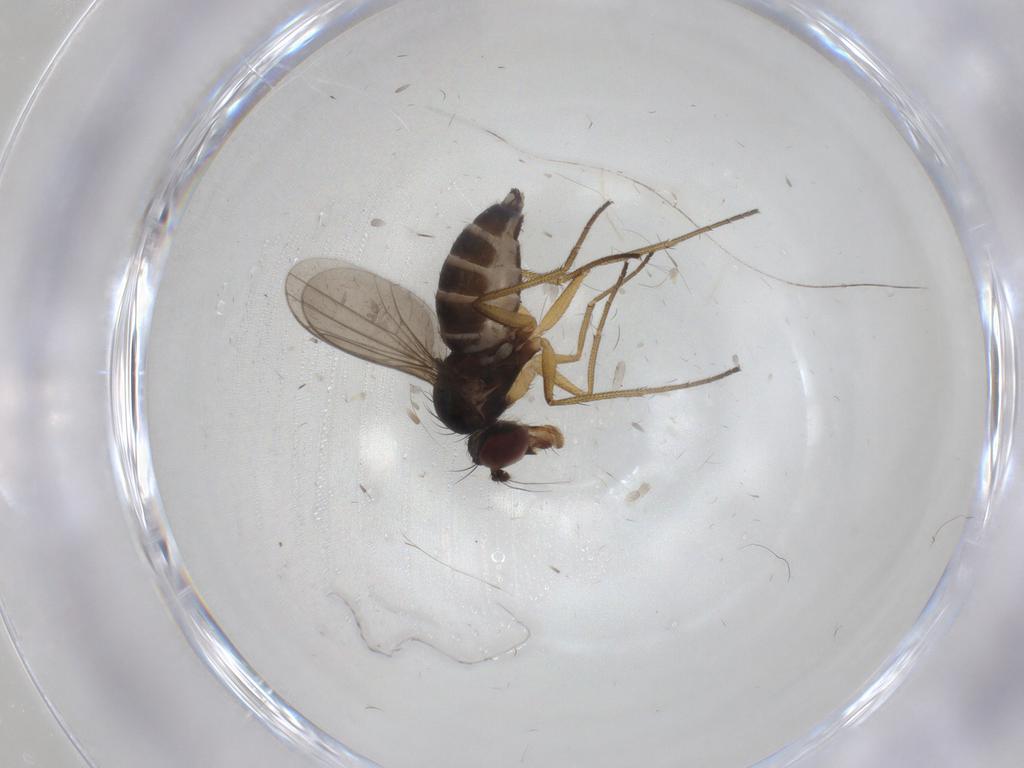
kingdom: Animalia
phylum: Arthropoda
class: Insecta
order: Diptera
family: Dolichopodidae
